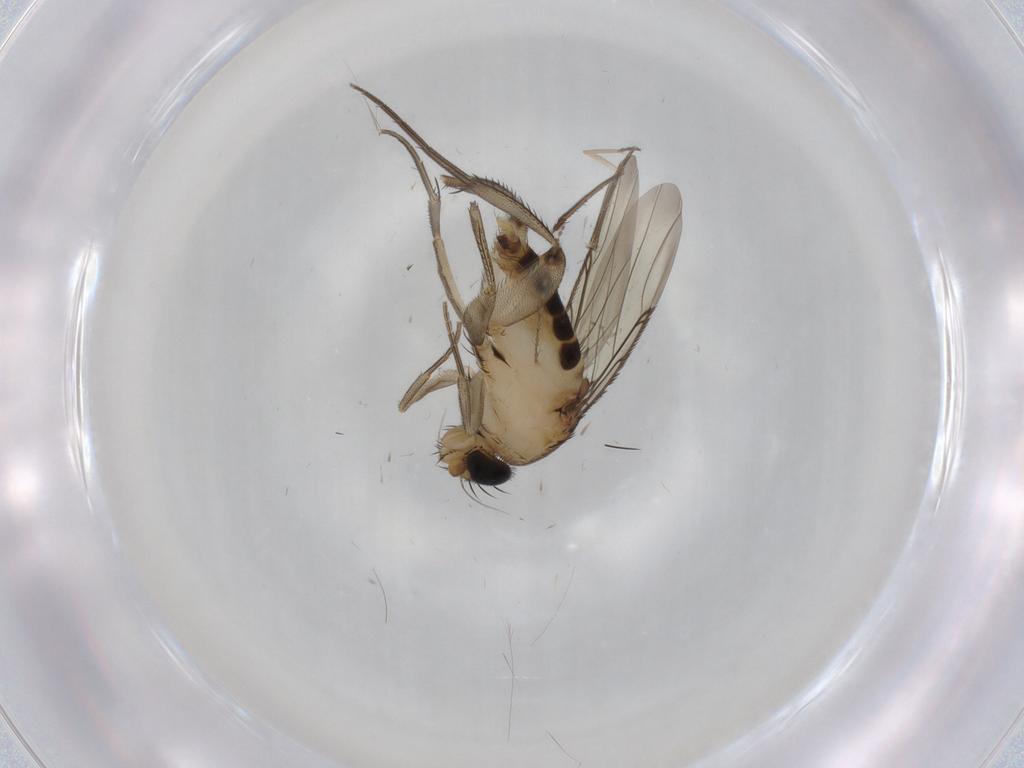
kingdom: Animalia
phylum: Arthropoda
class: Insecta
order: Diptera
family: Phoridae
